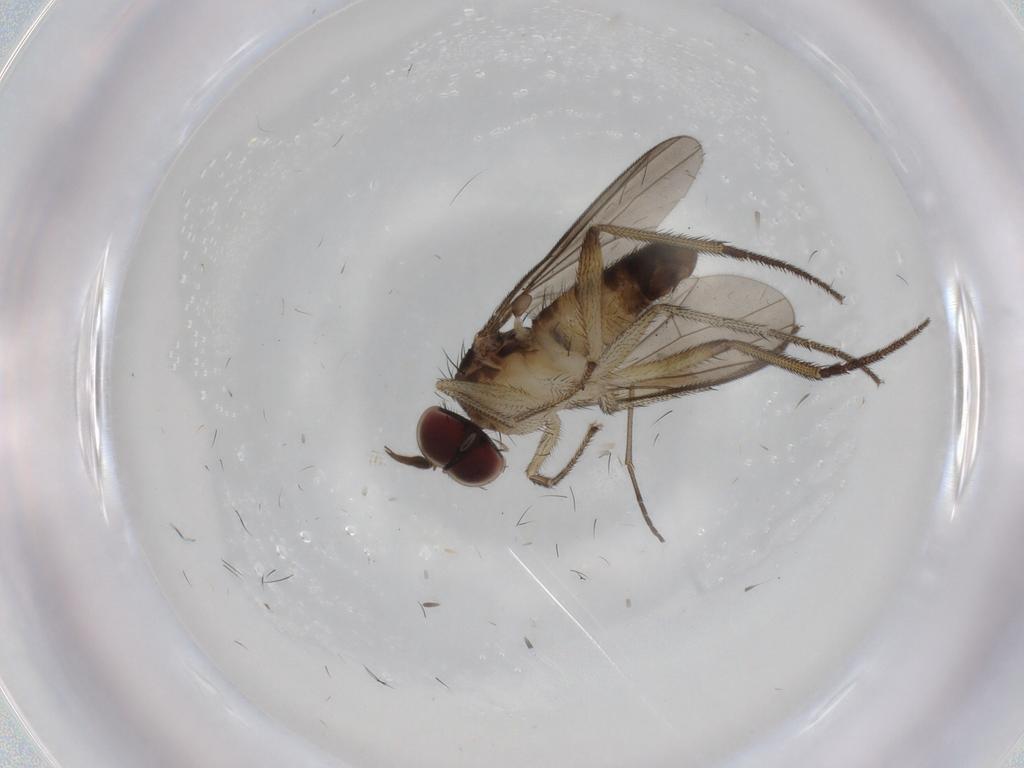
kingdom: Animalia
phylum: Arthropoda
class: Insecta
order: Diptera
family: Dolichopodidae
